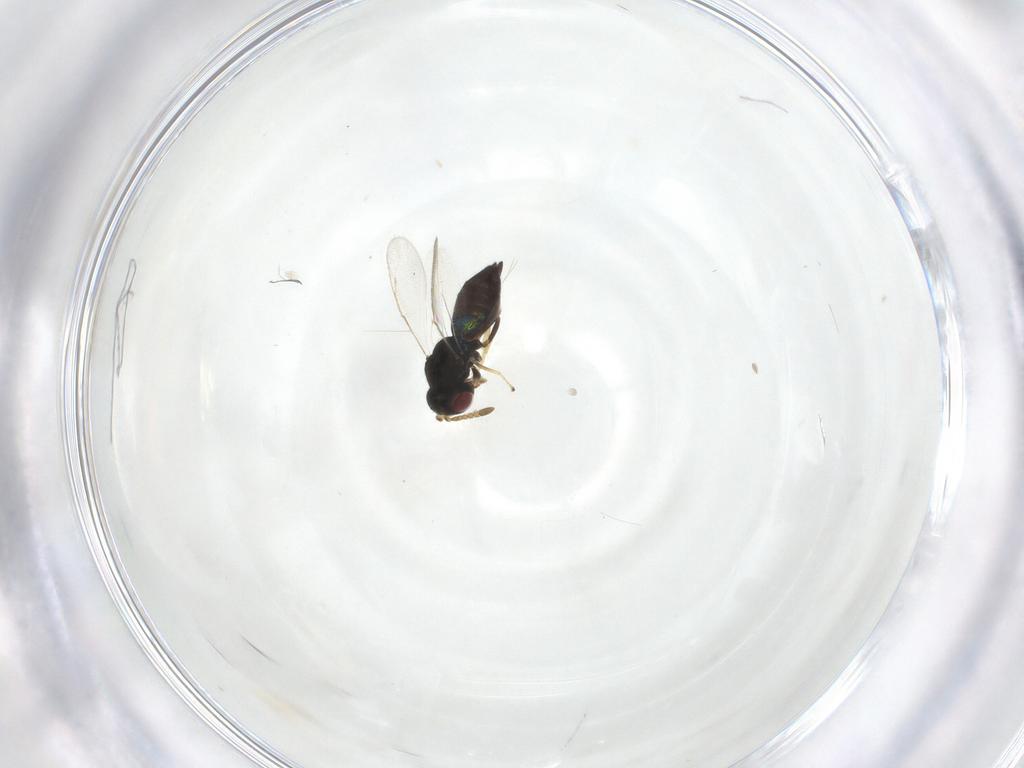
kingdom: Animalia
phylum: Arthropoda
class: Insecta
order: Hymenoptera
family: Pteromalidae
